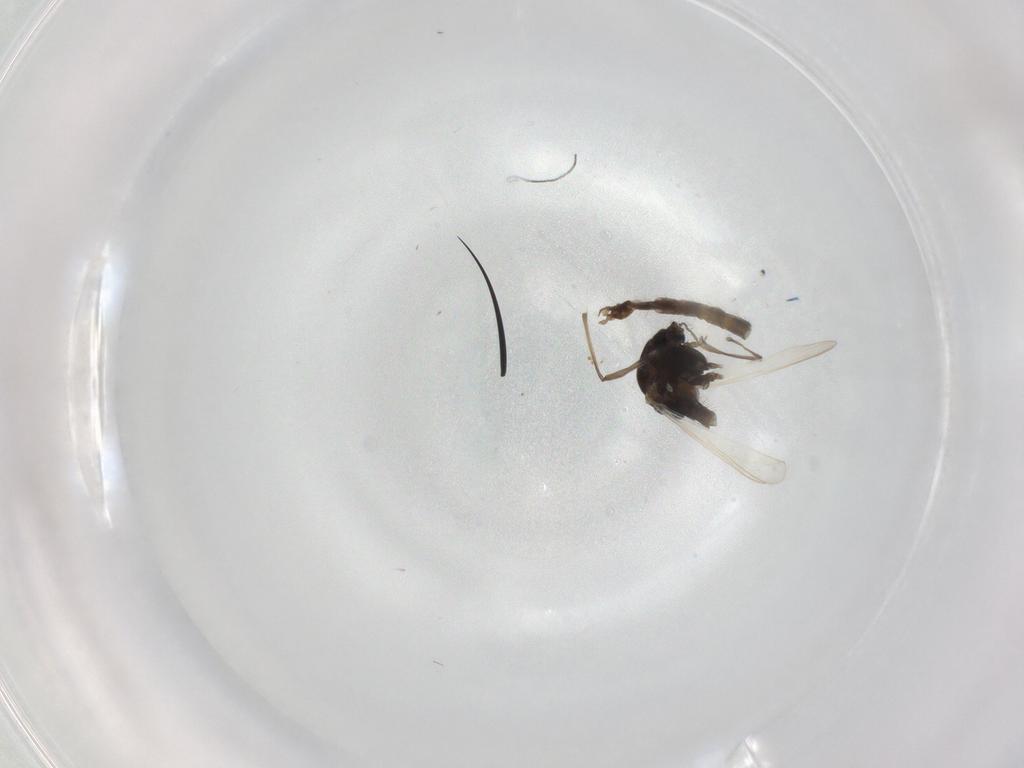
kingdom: Animalia
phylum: Arthropoda
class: Insecta
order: Diptera
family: Chironomidae
